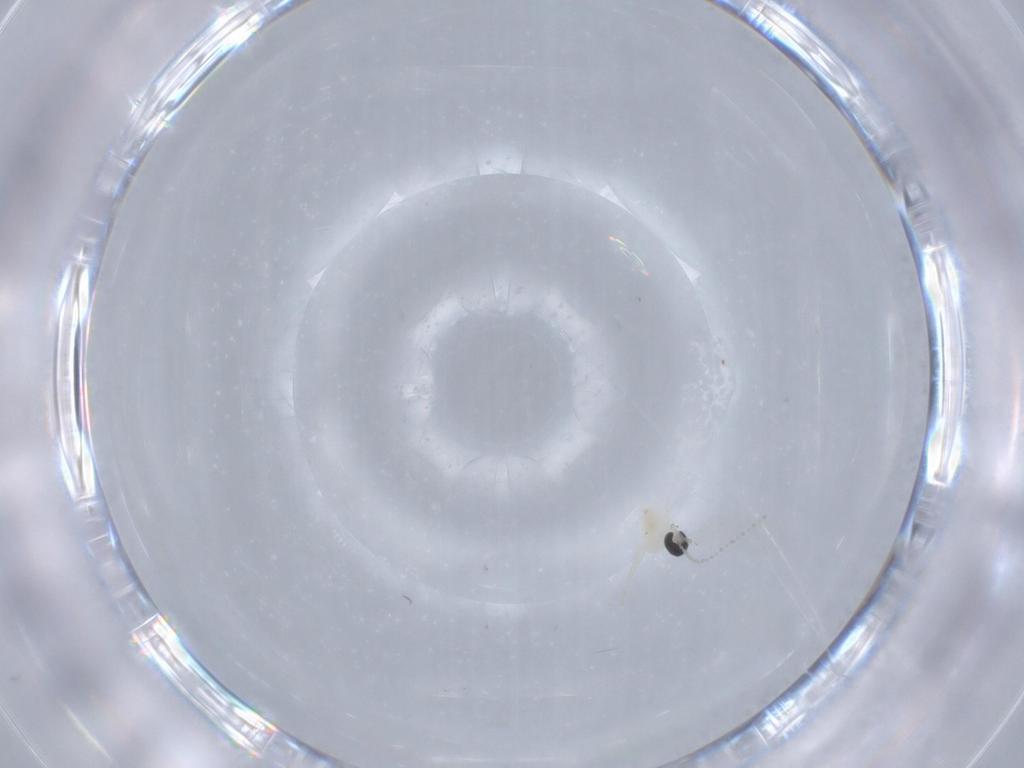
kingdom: Animalia
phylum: Arthropoda
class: Insecta
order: Diptera
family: Cecidomyiidae
